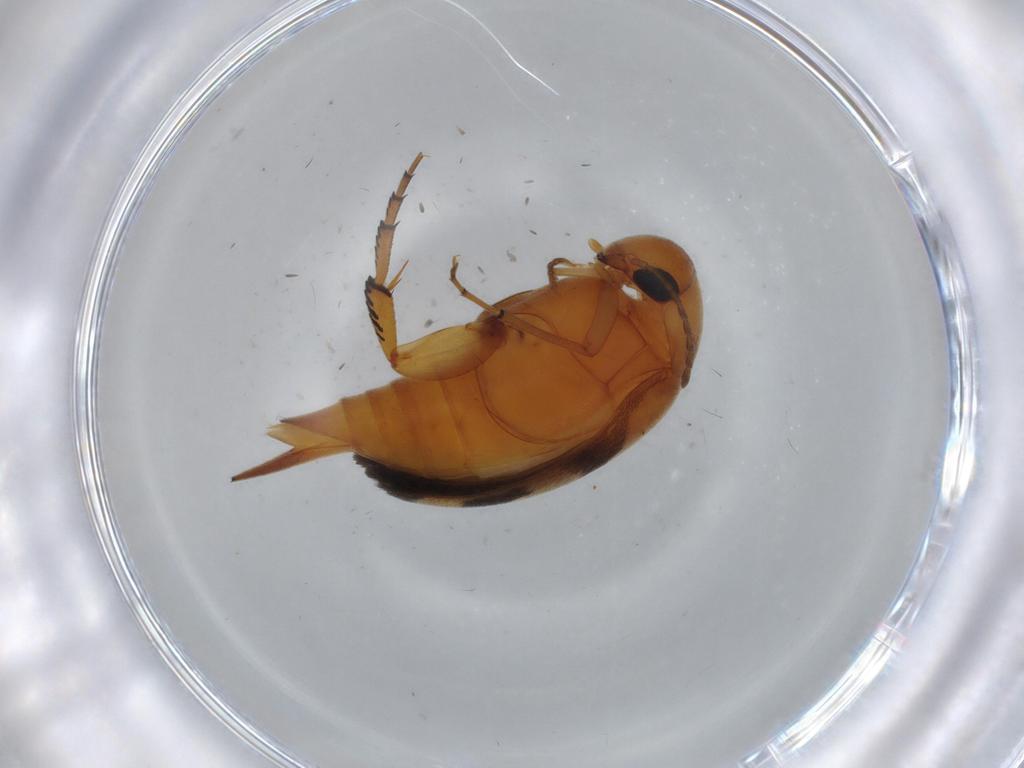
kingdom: Animalia
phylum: Arthropoda
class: Insecta
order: Coleoptera
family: Mordellidae
